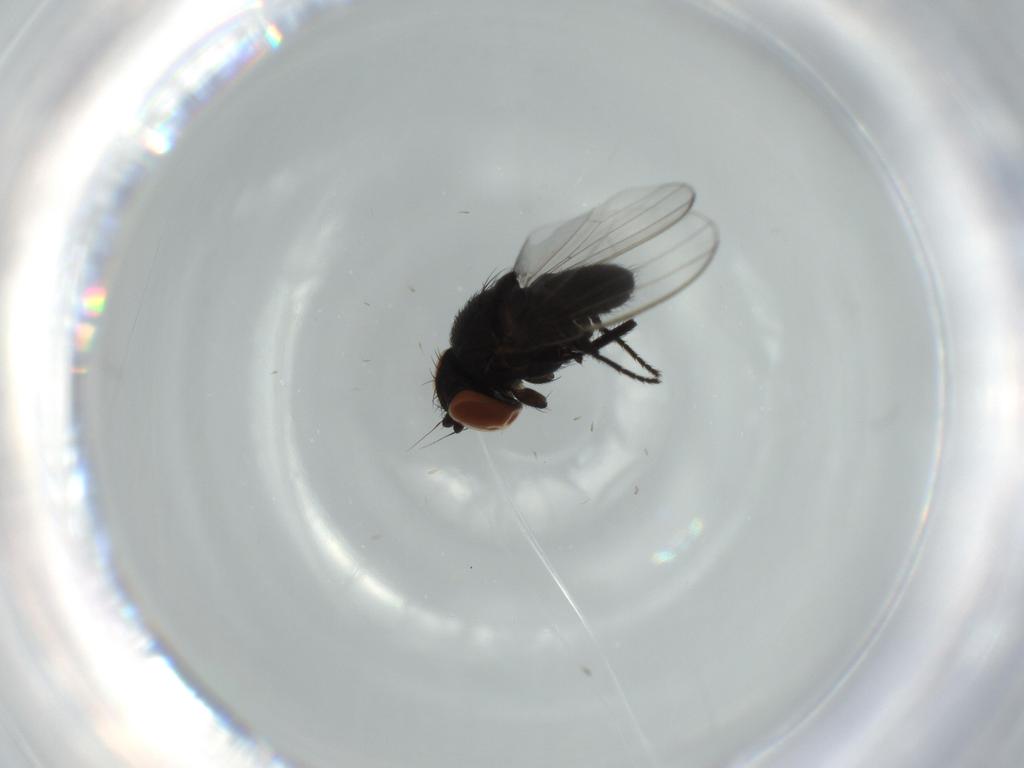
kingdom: Animalia
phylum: Arthropoda
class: Insecta
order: Diptera
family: Milichiidae
